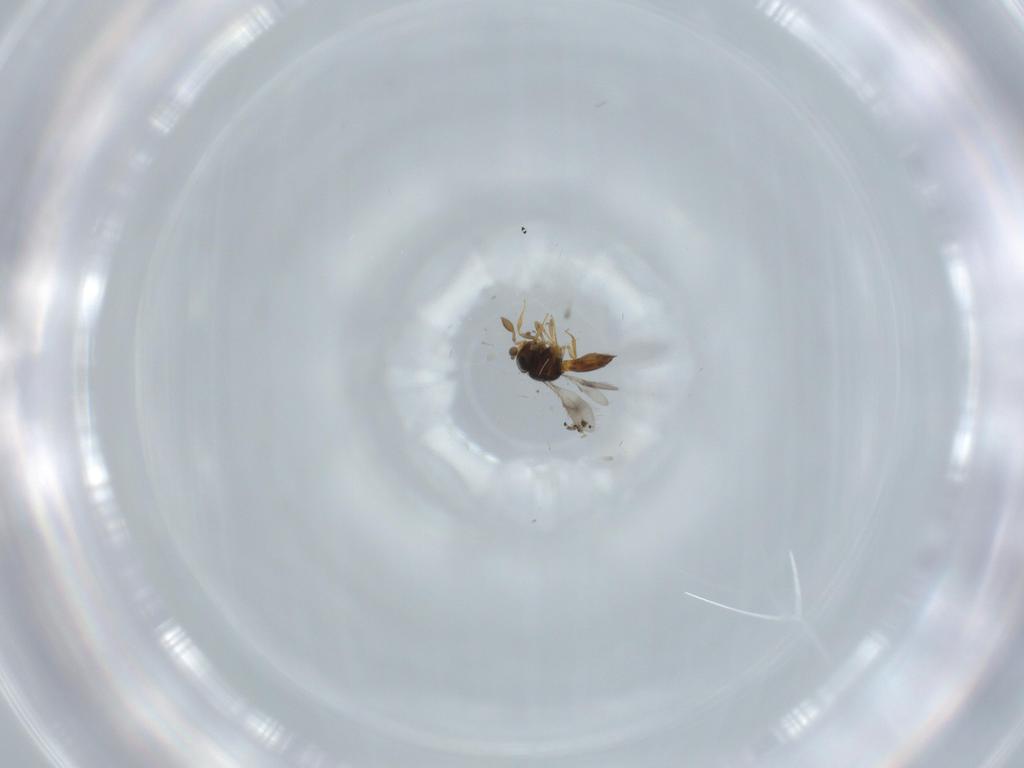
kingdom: Animalia
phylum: Arthropoda
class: Insecta
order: Hymenoptera
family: Scelionidae
